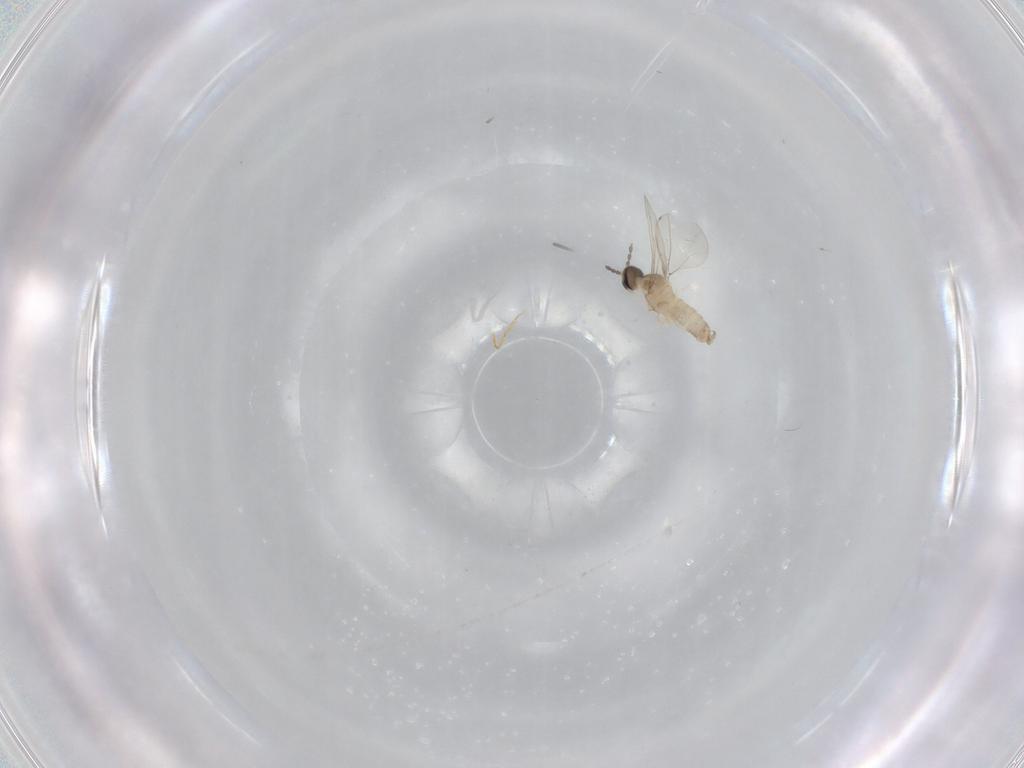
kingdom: Animalia
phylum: Arthropoda
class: Insecta
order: Diptera
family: Cecidomyiidae
